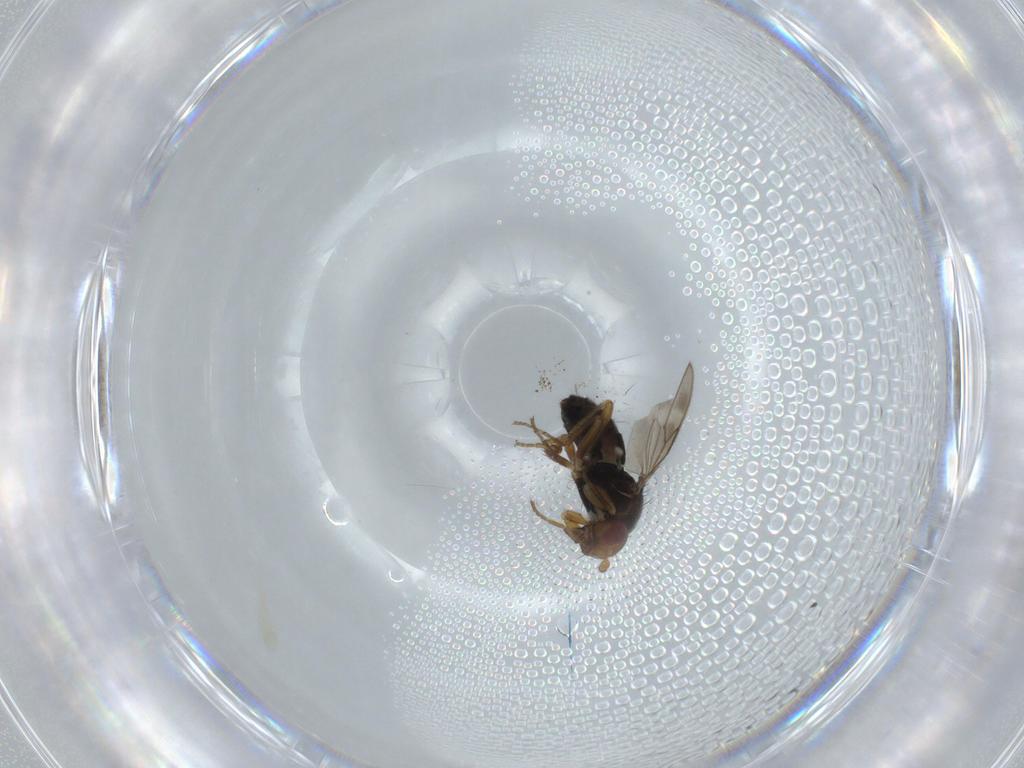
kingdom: Animalia
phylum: Arthropoda
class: Insecta
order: Diptera
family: Sphaeroceridae
